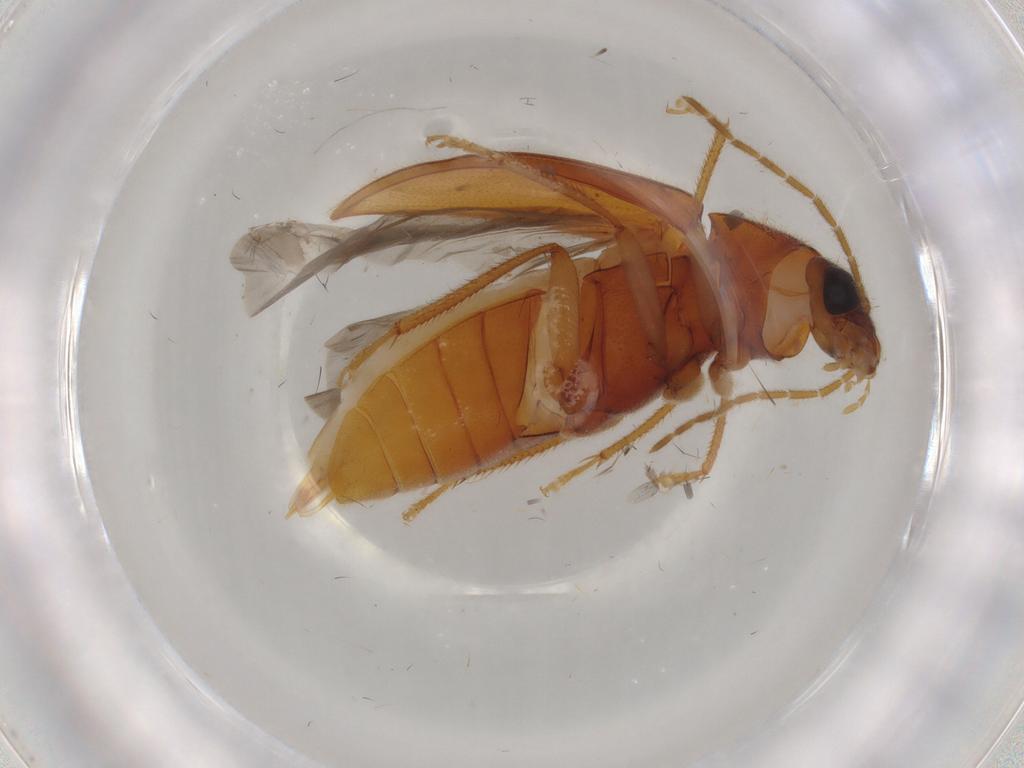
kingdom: Animalia
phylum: Arthropoda
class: Insecta
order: Coleoptera
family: Ptilodactylidae
